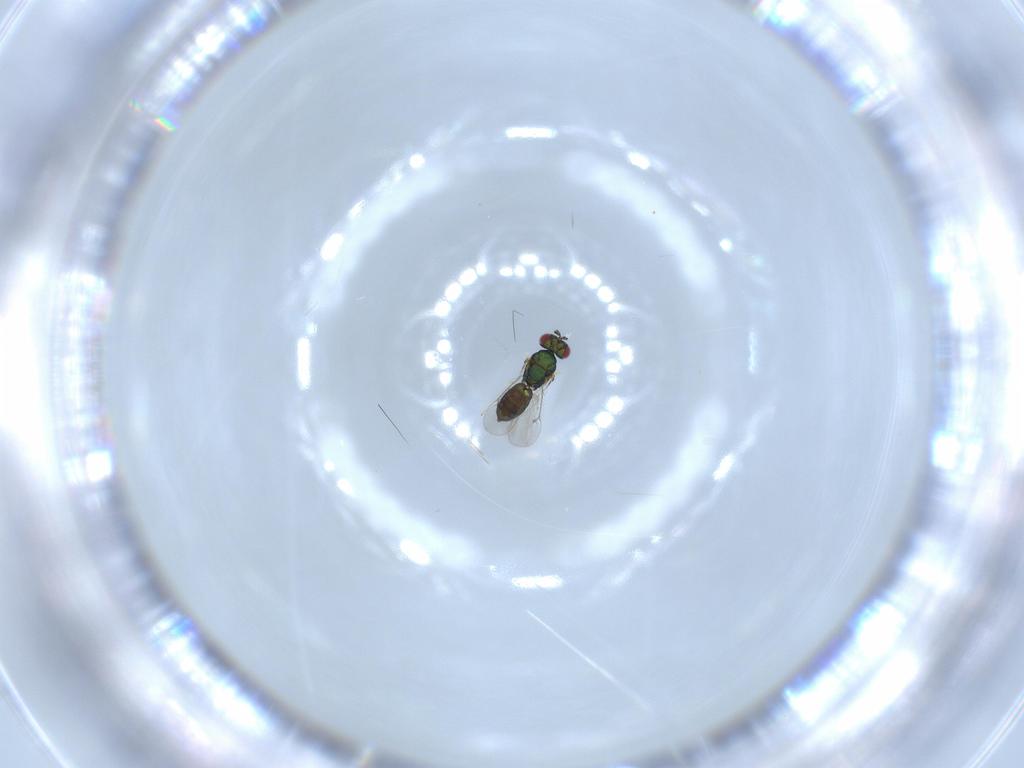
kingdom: Animalia
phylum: Arthropoda
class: Insecta
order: Hymenoptera
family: Eulophidae
